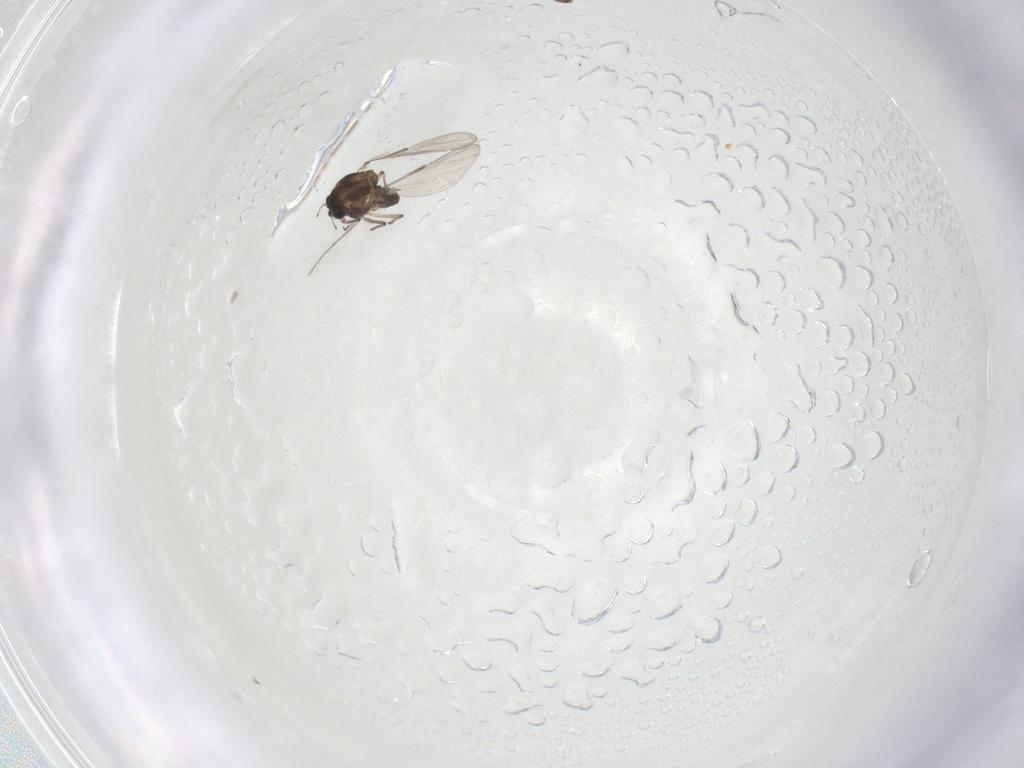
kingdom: Animalia
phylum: Arthropoda
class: Insecta
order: Diptera
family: Chironomidae
